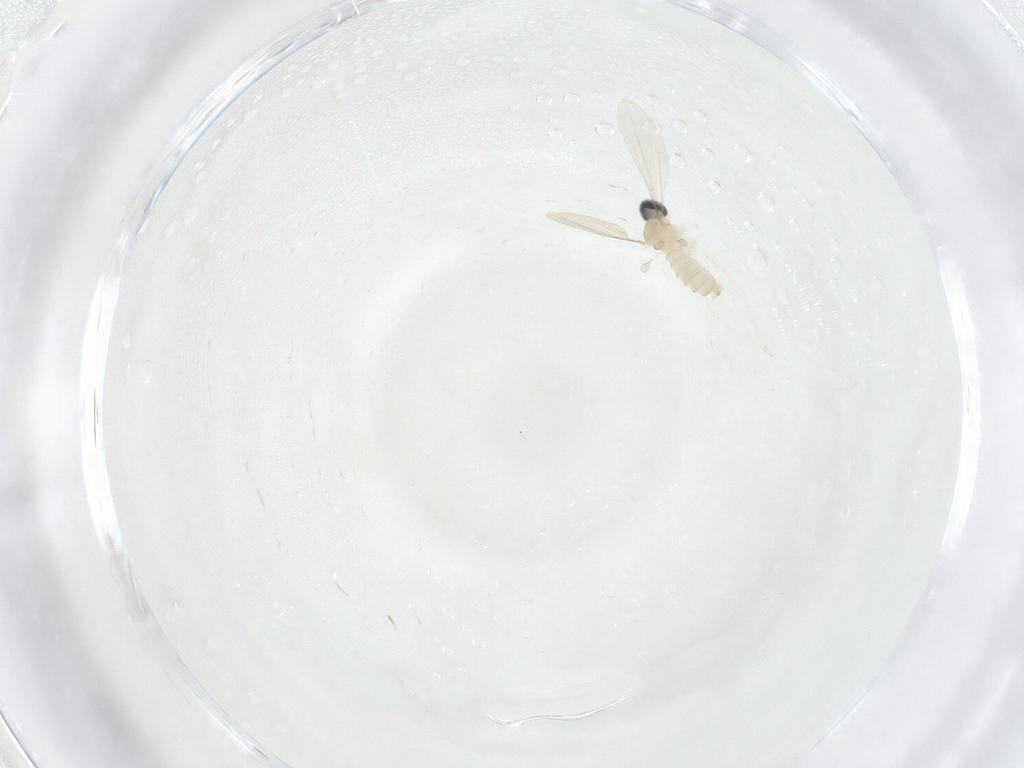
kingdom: Animalia
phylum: Arthropoda
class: Insecta
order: Diptera
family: Cecidomyiidae
